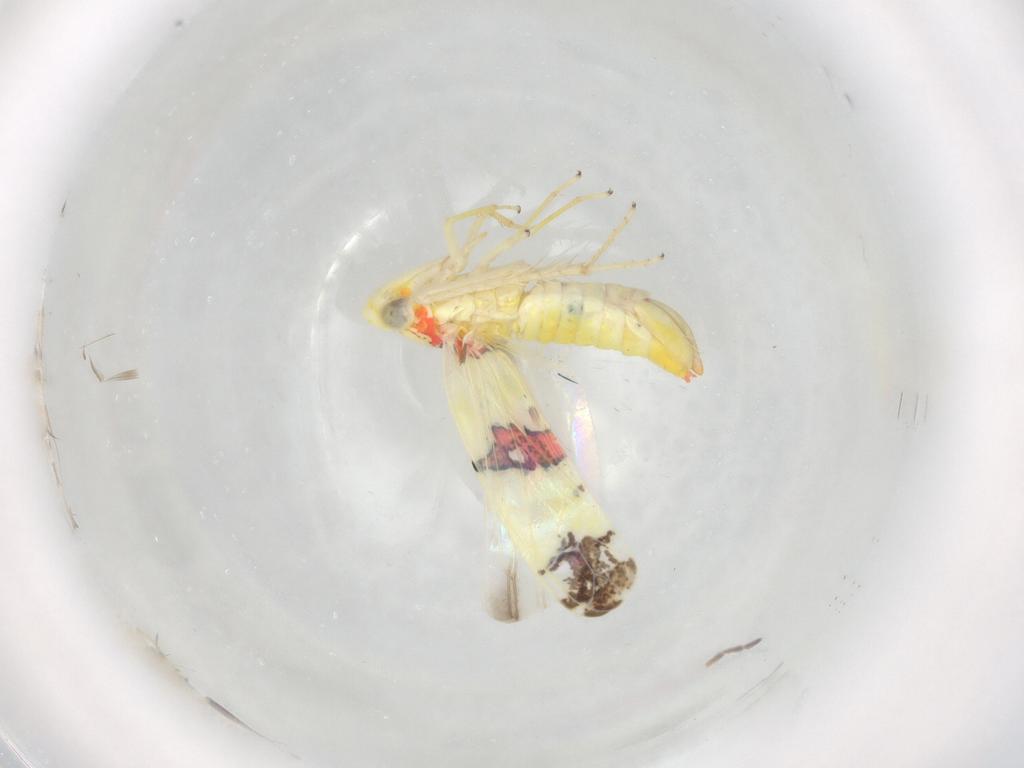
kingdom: Animalia
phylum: Arthropoda
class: Insecta
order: Hemiptera
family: Cicadellidae
